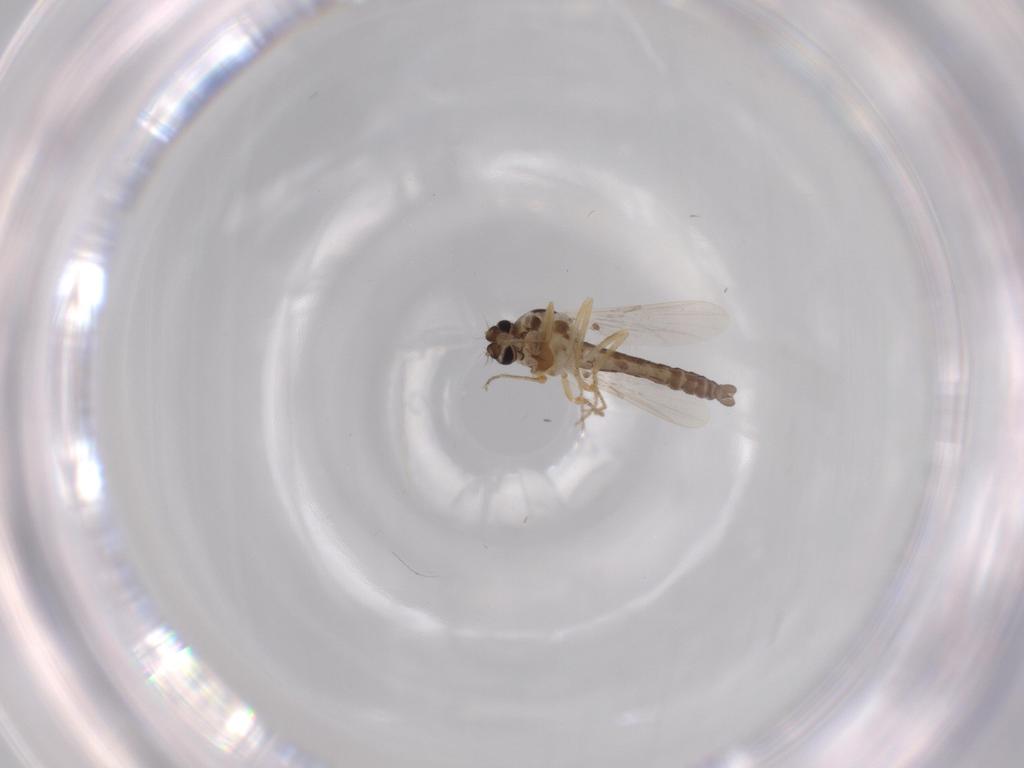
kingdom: Animalia
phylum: Arthropoda
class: Insecta
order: Diptera
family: Ceratopogonidae
